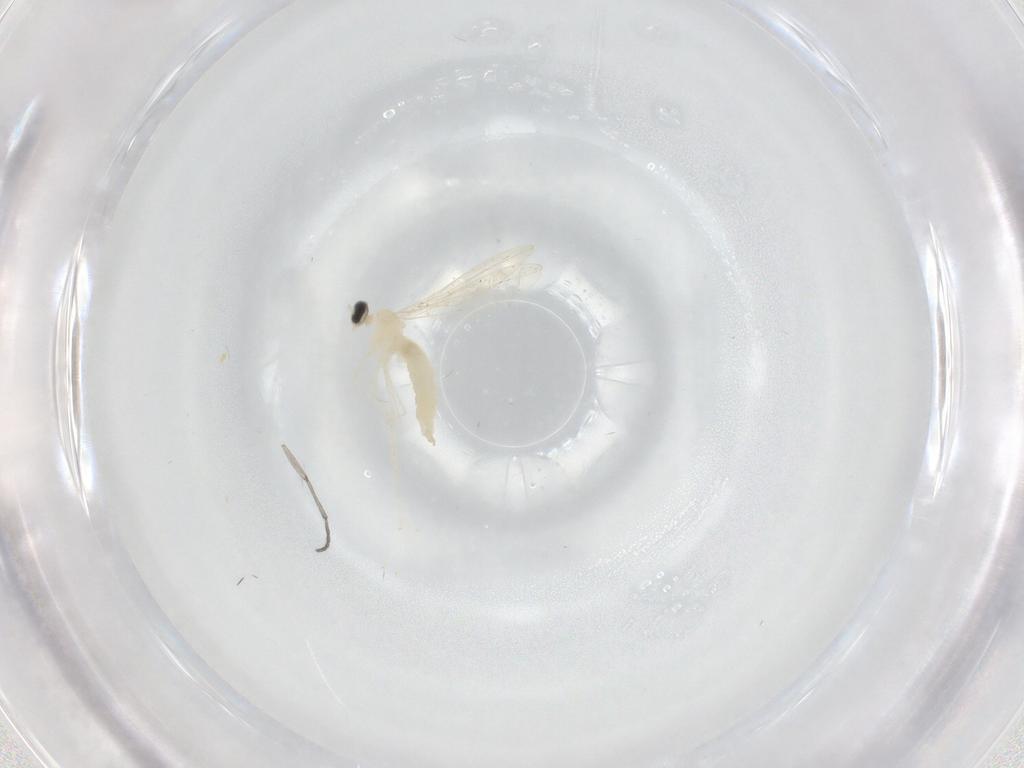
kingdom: Animalia
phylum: Arthropoda
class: Insecta
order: Diptera
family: Cecidomyiidae
